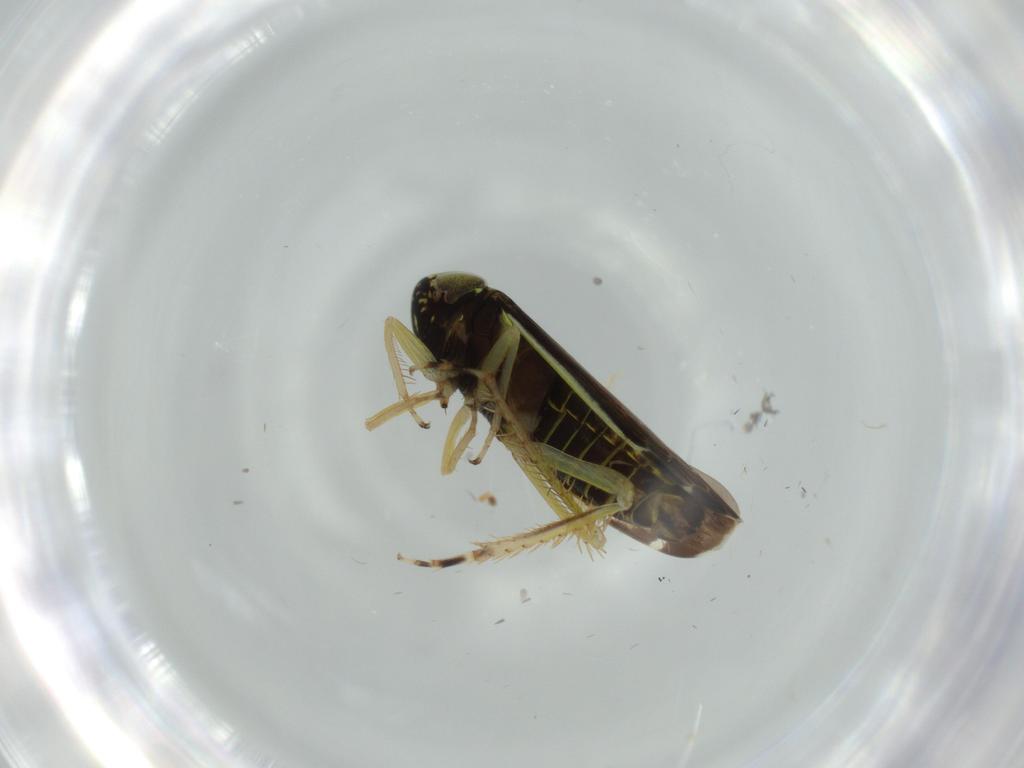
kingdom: Animalia
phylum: Arthropoda
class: Insecta
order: Hemiptera
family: Cicadellidae
